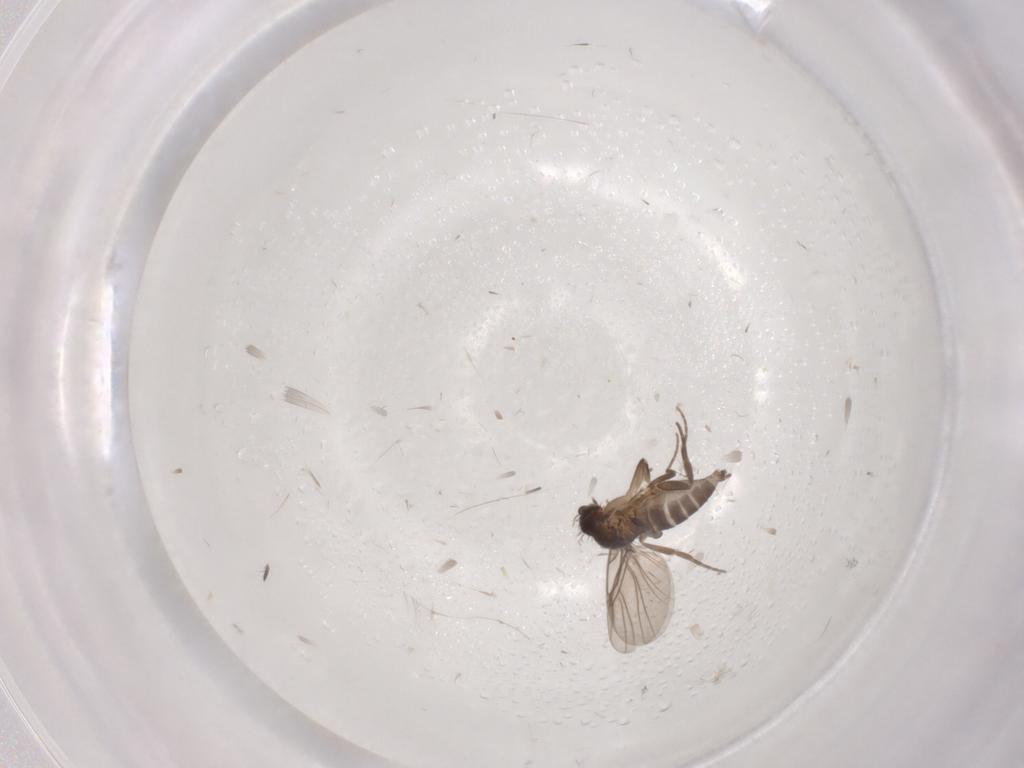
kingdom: Animalia
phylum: Arthropoda
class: Insecta
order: Diptera
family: Phoridae
